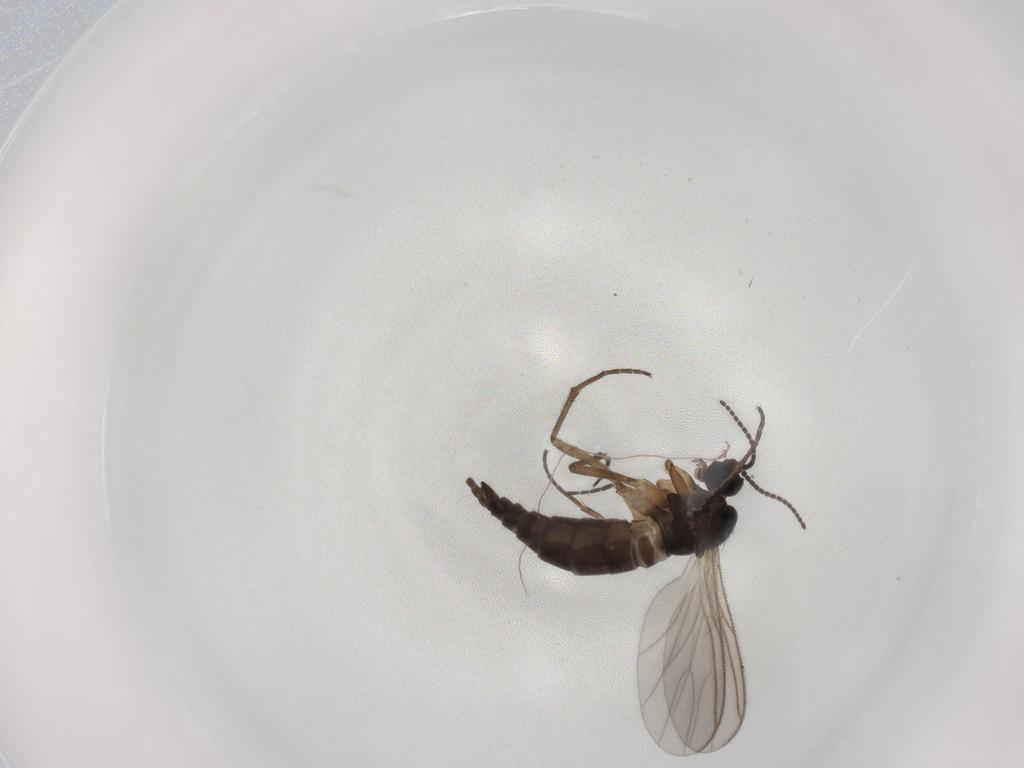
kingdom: Animalia
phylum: Arthropoda
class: Insecta
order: Diptera
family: Sciaridae
